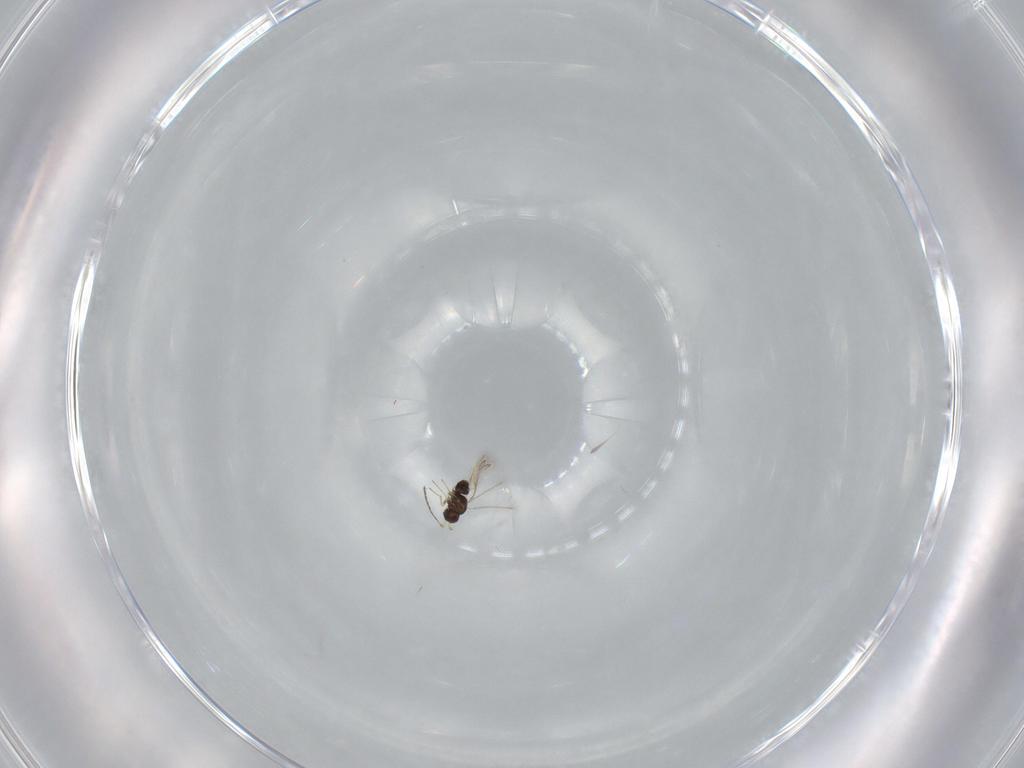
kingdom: Animalia
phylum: Arthropoda
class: Insecta
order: Hymenoptera
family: Mymaridae
